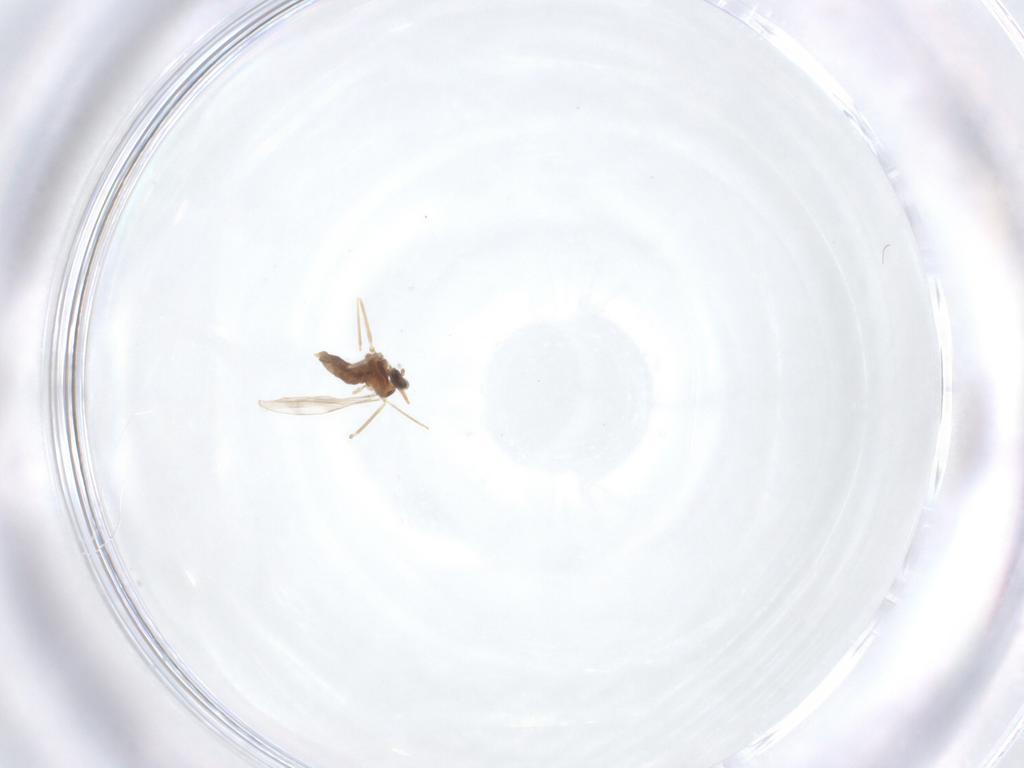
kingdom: Animalia
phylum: Arthropoda
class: Insecta
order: Diptera
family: Cecidomyiidae
